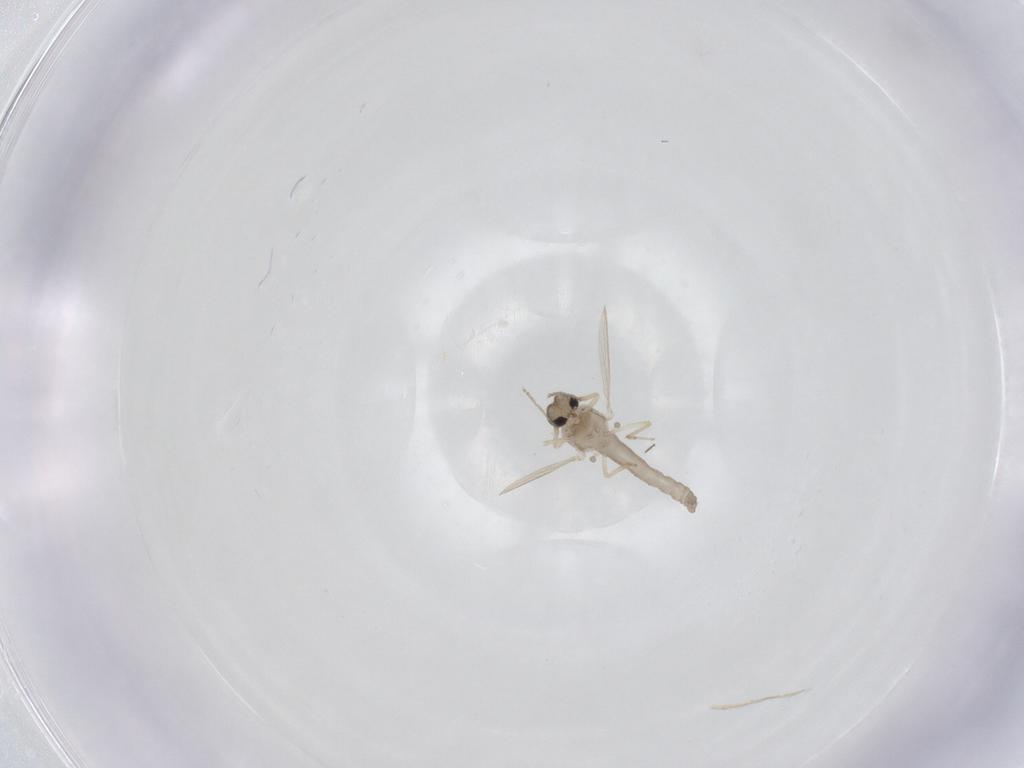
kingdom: Animalia
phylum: Arthropoda
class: Insecta
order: Diptera
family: Ceratopogonidae
